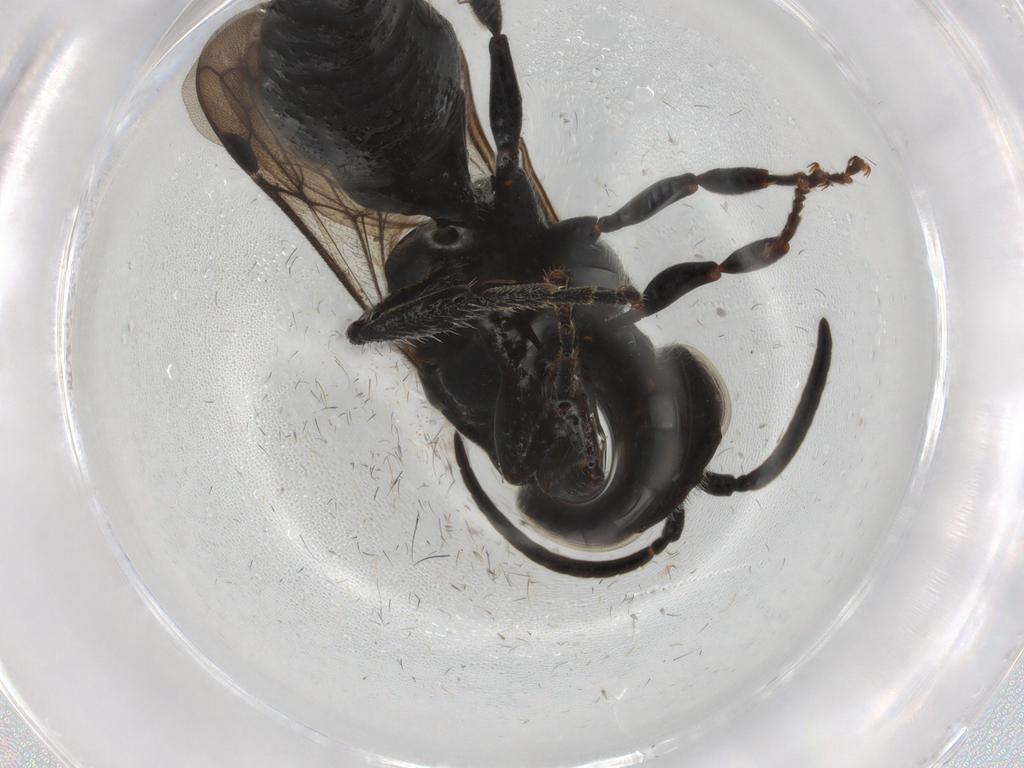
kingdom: Animalia
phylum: Arthropoda
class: Insecta
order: Hymenoptera
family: Tiphiidae
